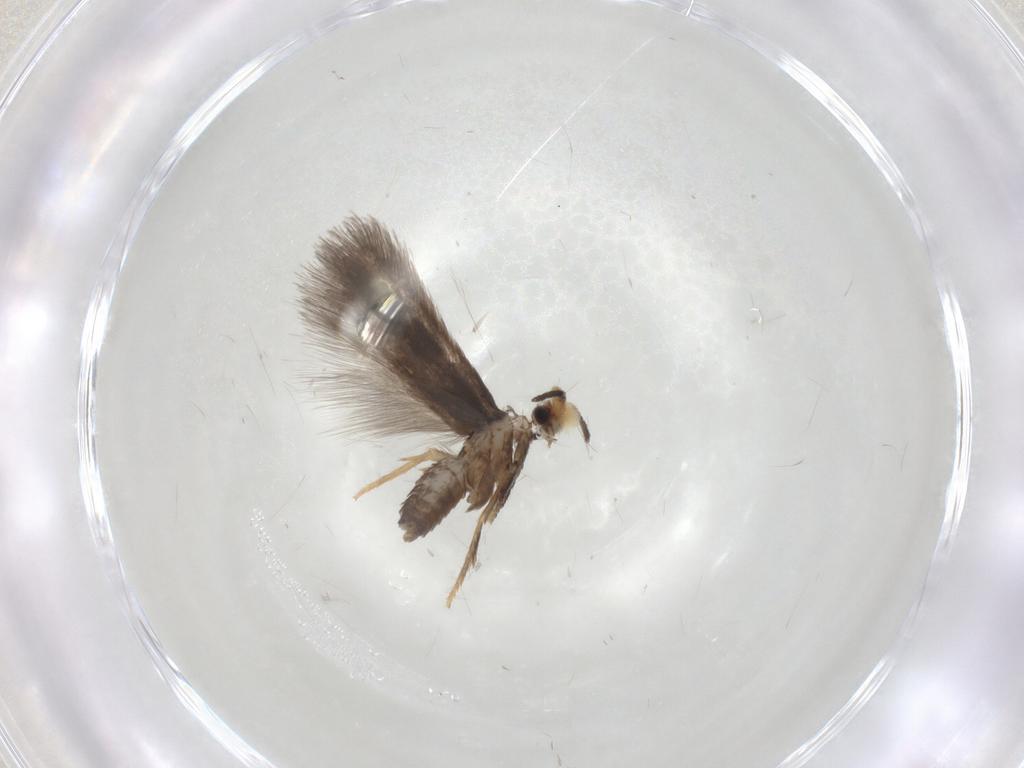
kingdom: Animalia
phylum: Arthropoda
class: Insecta
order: Lepidoptera
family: Nepticulidae
